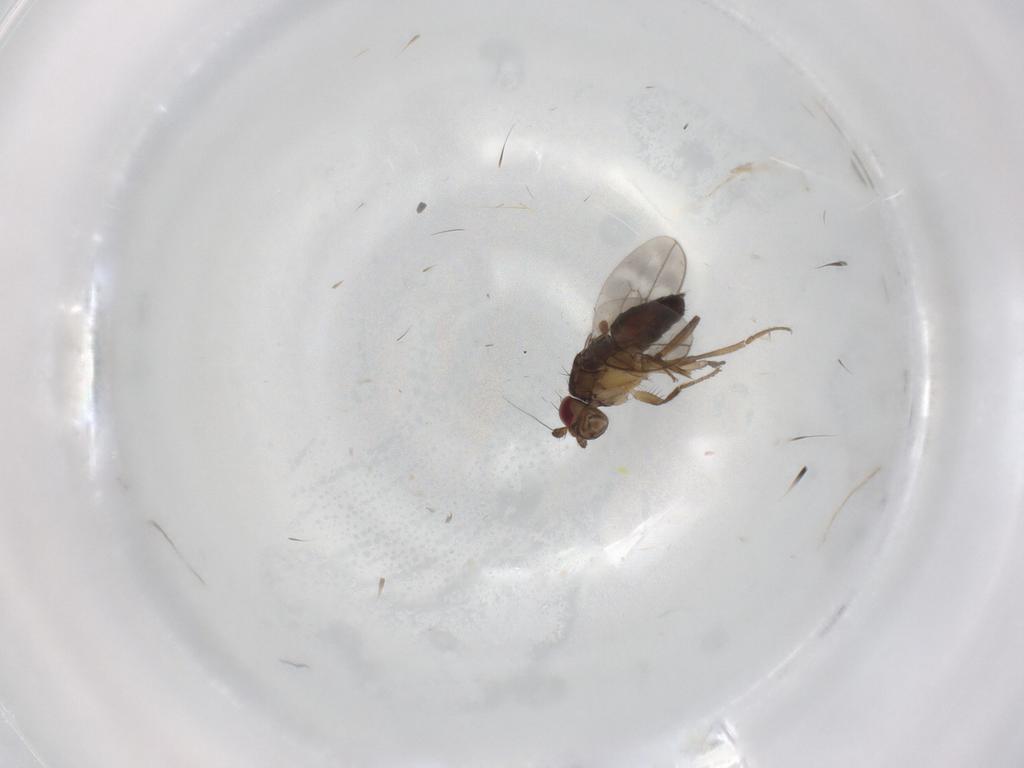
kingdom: Animalia
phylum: Arthropoda
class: Insecta
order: Diptera
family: Sphaeroceridae
